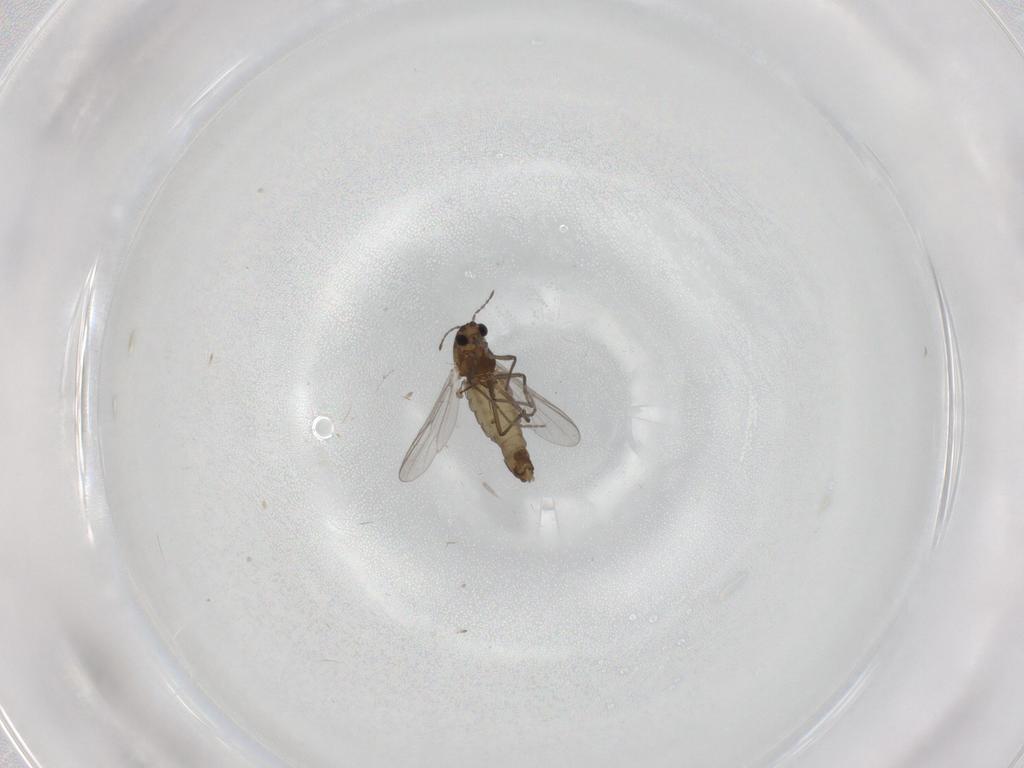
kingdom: Animalia
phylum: Arthropoda
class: Insecta
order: Diptera
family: Chironomidae
